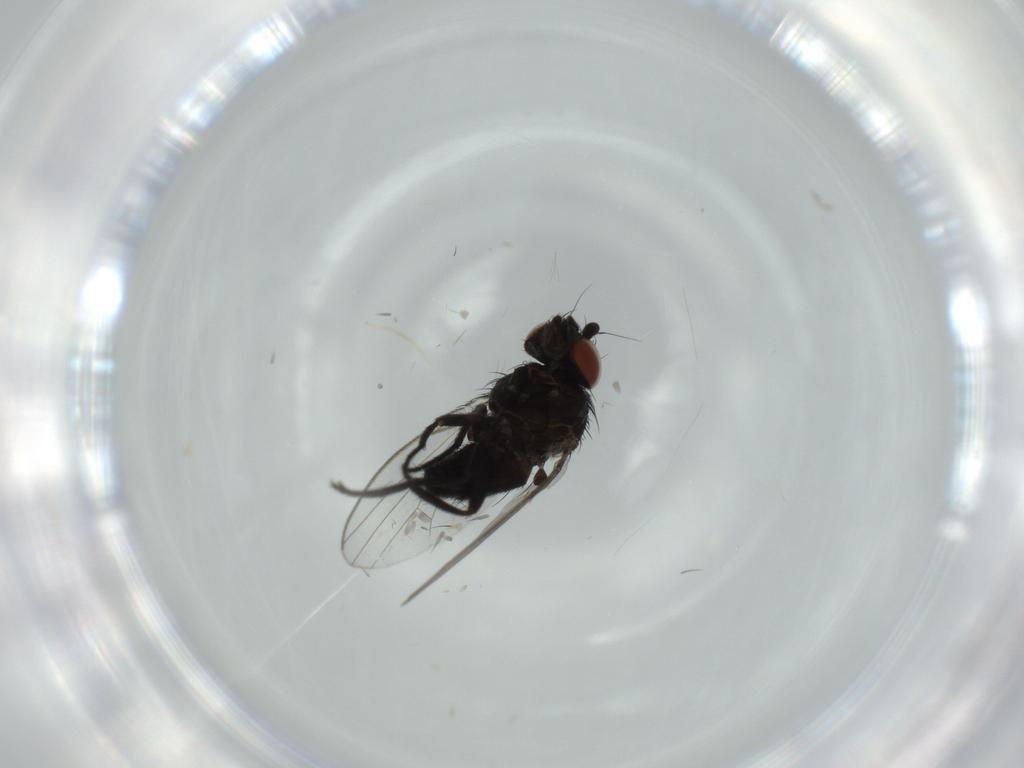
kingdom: Animalia
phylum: Arthropoda
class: Insecta
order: Diptera
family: Milichiidae
